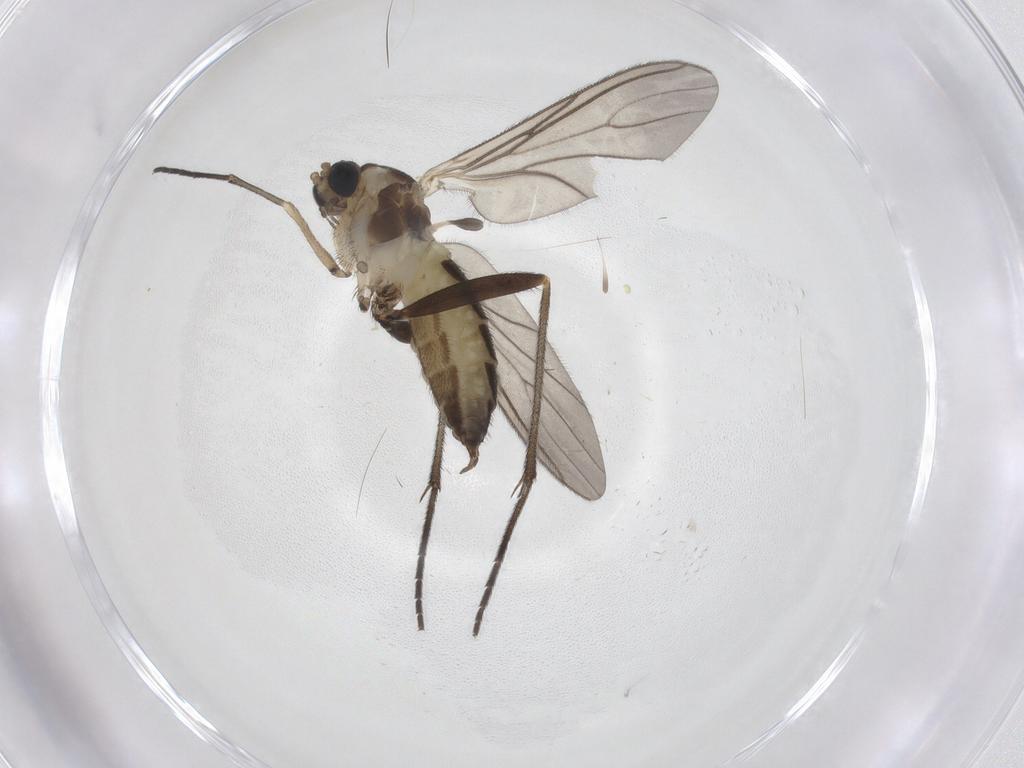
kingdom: Animalia
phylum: Arthropoda
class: Insecta
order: Diptera
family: Sciaridae
